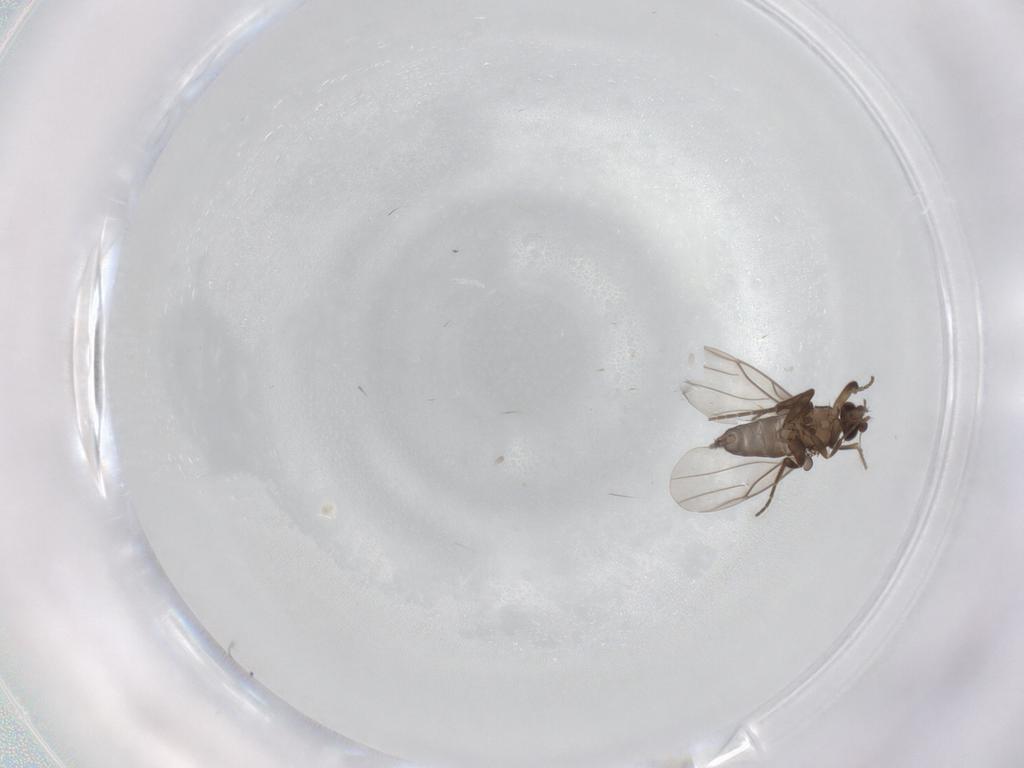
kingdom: Animalia
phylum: Arthropoda
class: Insecta
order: Diptera
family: Phoridae
